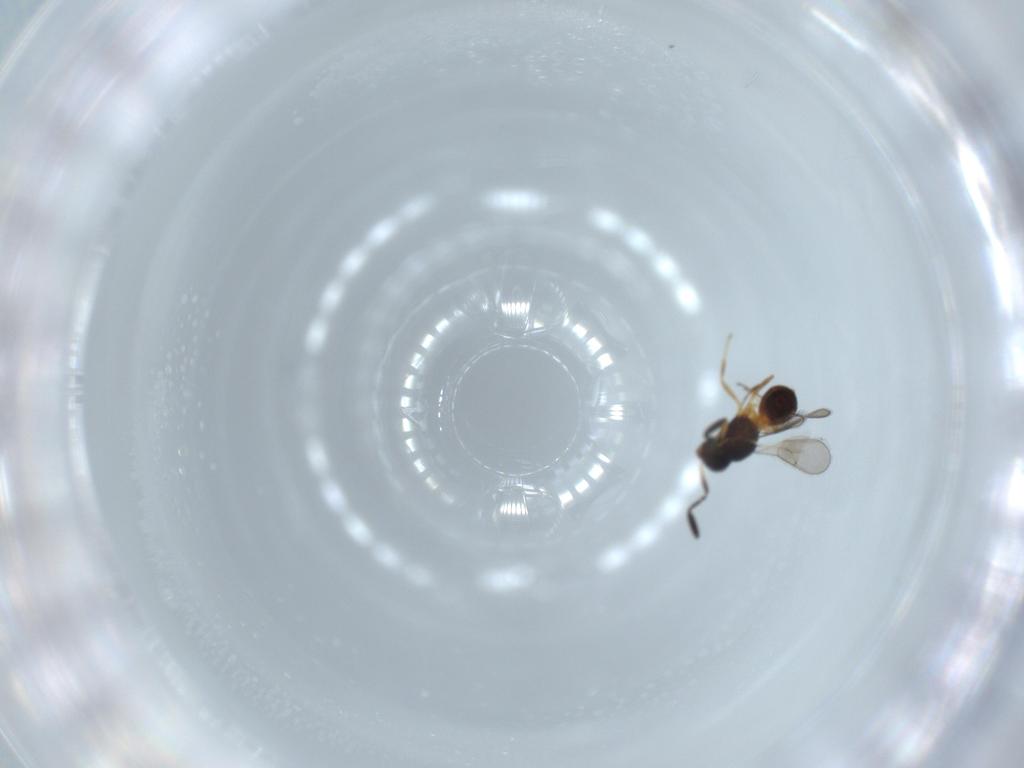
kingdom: Animalia
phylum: Arthropoda
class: Insecta
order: Hymenoptera
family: Scelionidae
